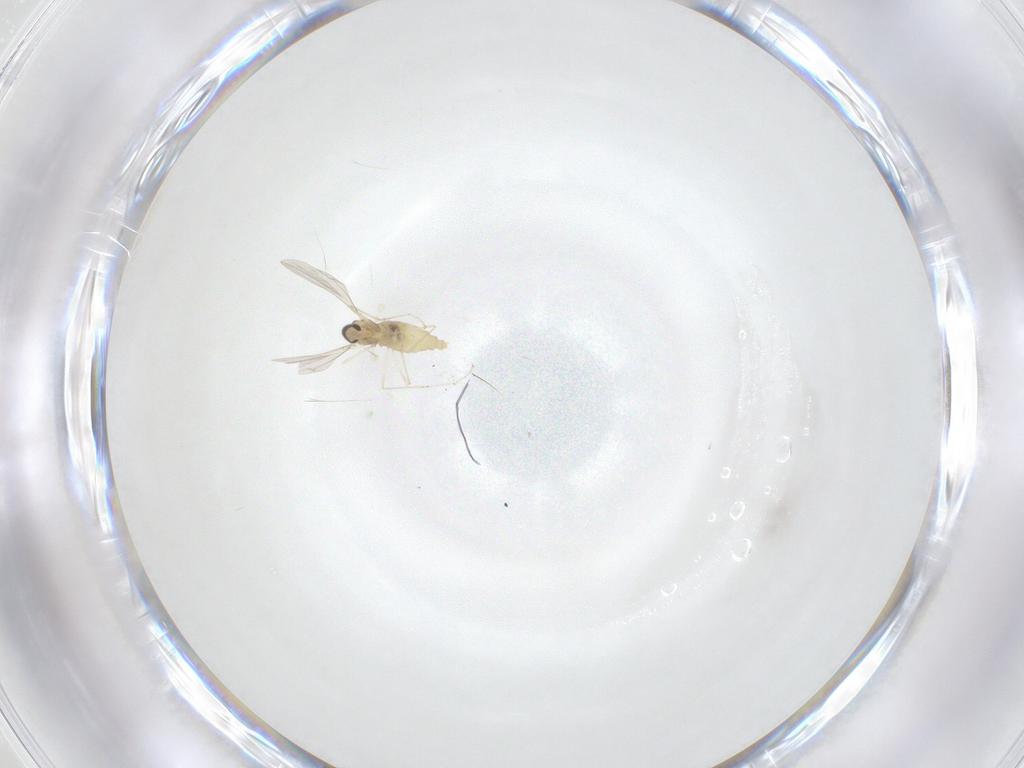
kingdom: Animalia
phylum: Arthropoda
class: Insecta
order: Diptera
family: Cecidomyiidae
